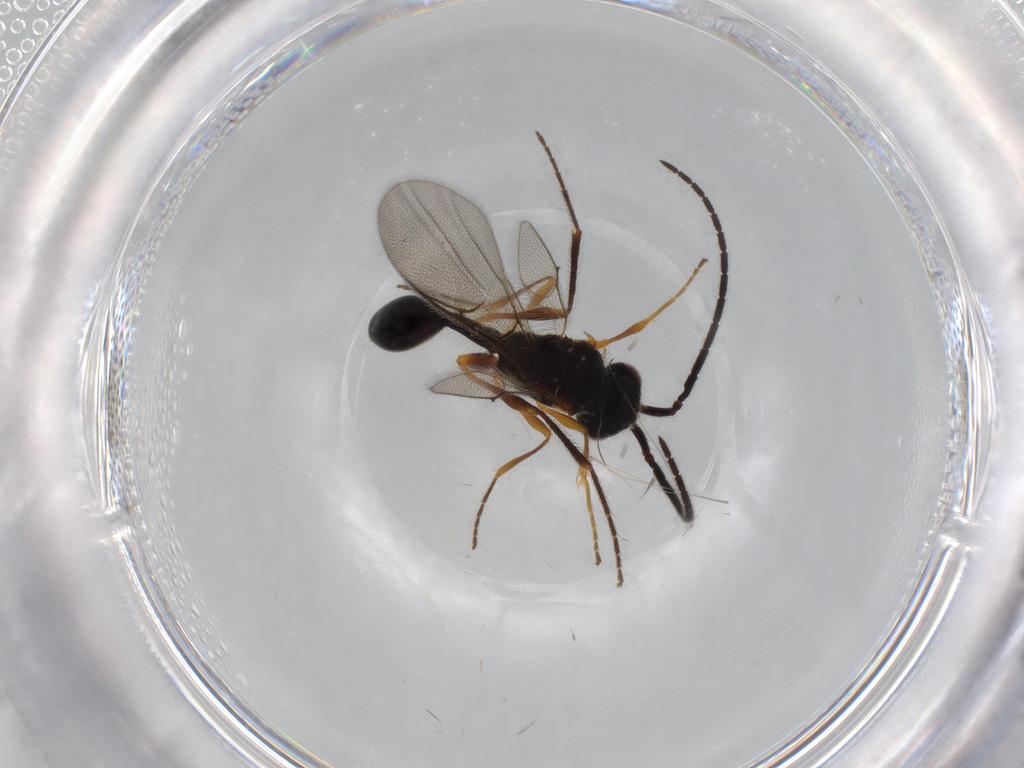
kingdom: Animalia
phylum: Arthropoda
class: Insecta
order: Hymenoptera
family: Diapriidae
